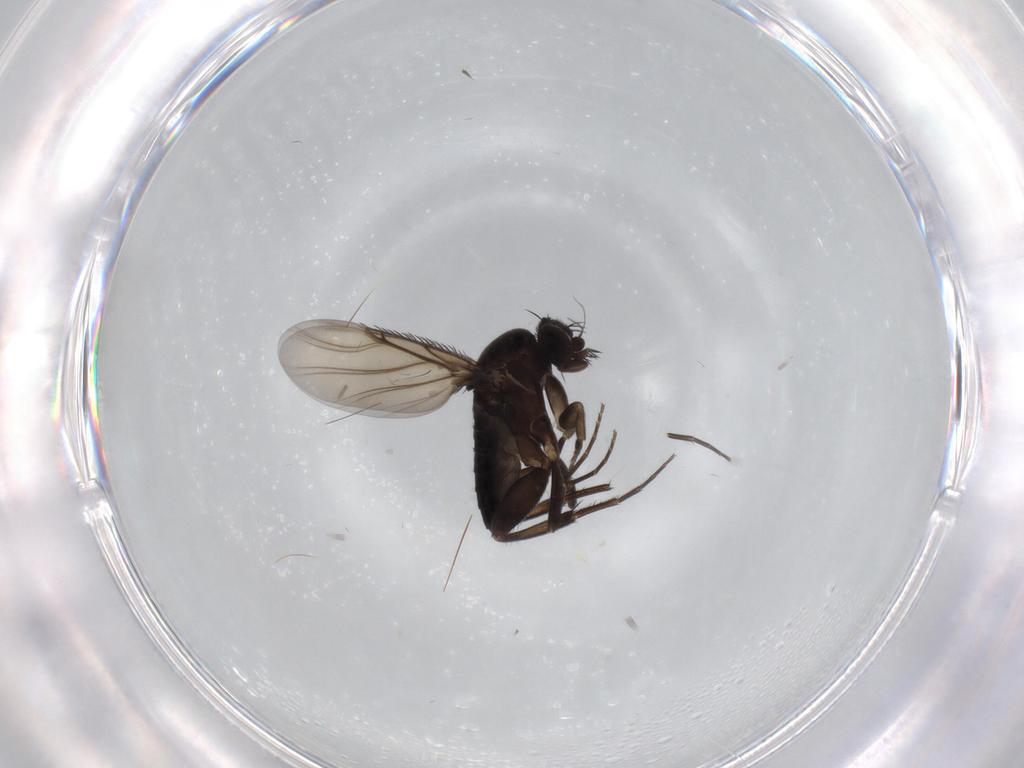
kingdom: Animalia
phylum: Arthropoda
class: Insecta
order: Diptera
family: Phoridae
